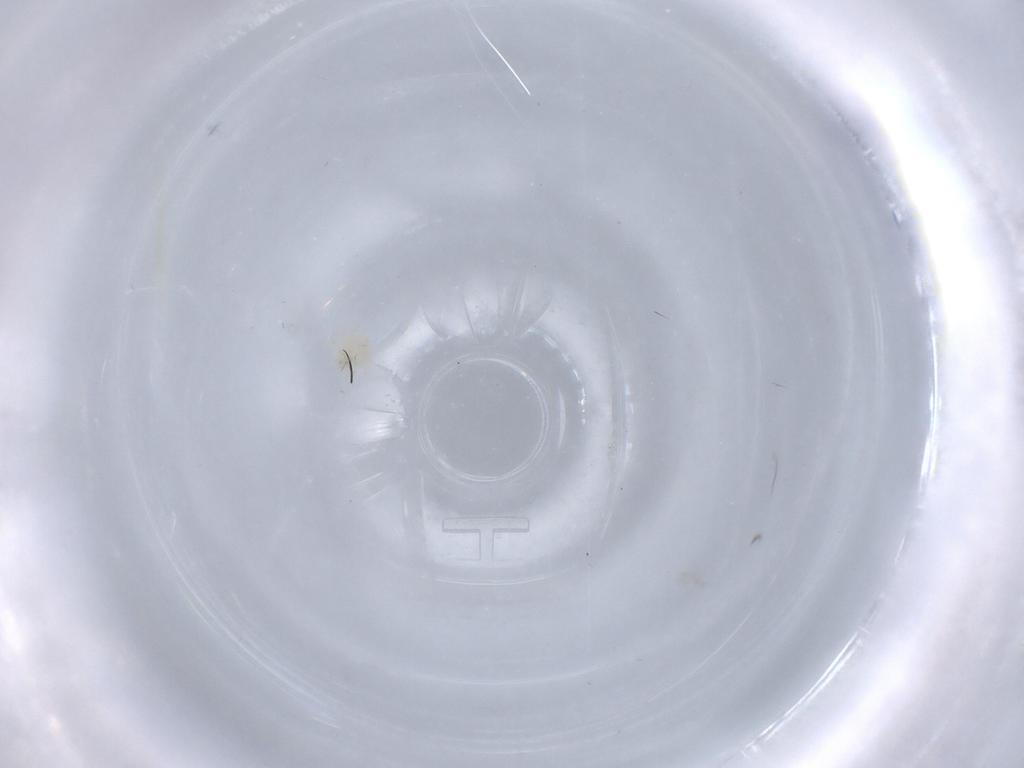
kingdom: Animalia
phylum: Arthropoda
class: Arachnida
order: Trombidiformes
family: Anystidae
